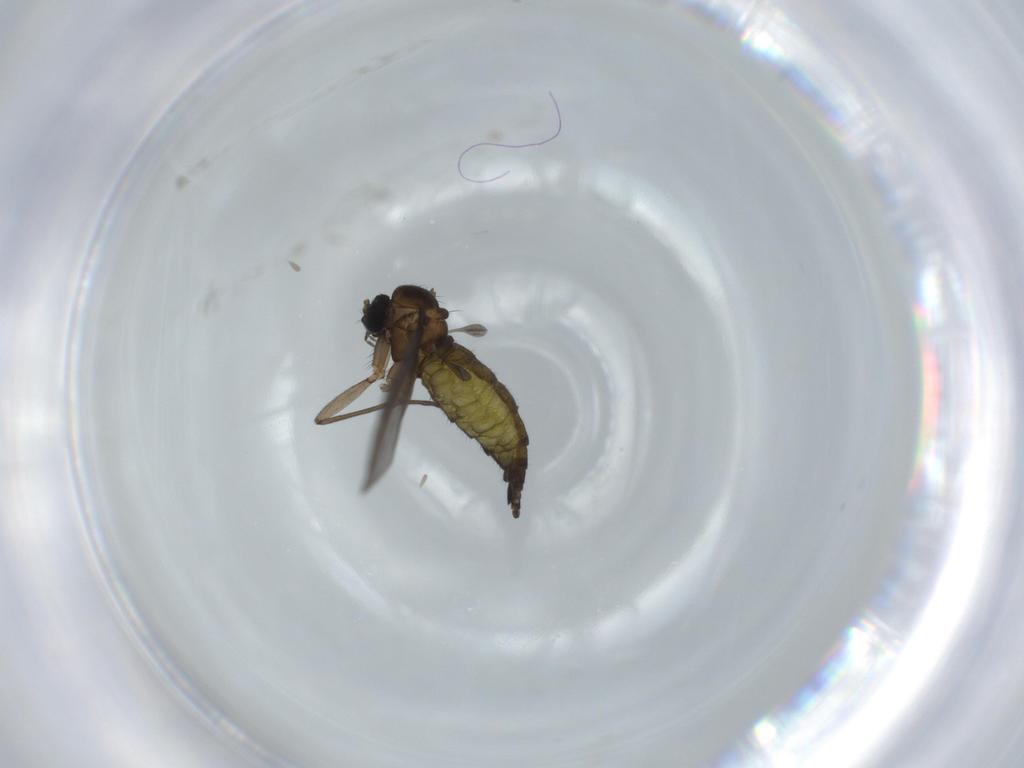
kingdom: Animalia
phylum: Arthropoda
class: Insecta
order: Diptera
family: Sciaridae
